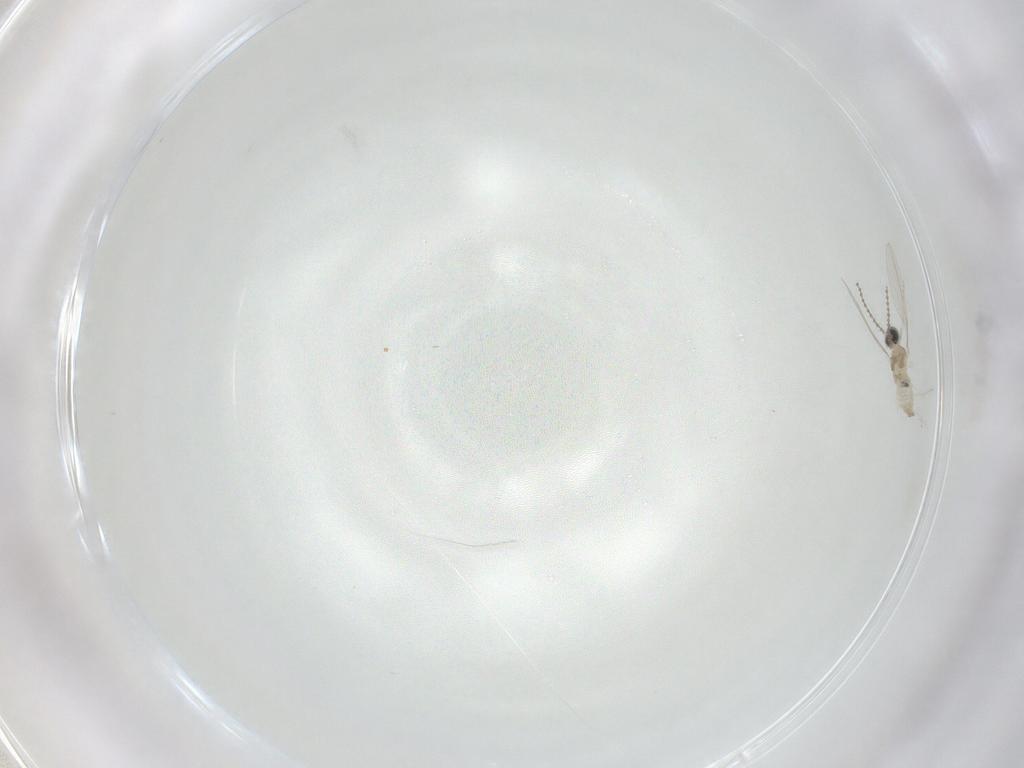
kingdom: Animalia
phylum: Arthropoda
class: Insecta
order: Diptera
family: Cecidomyiidae
